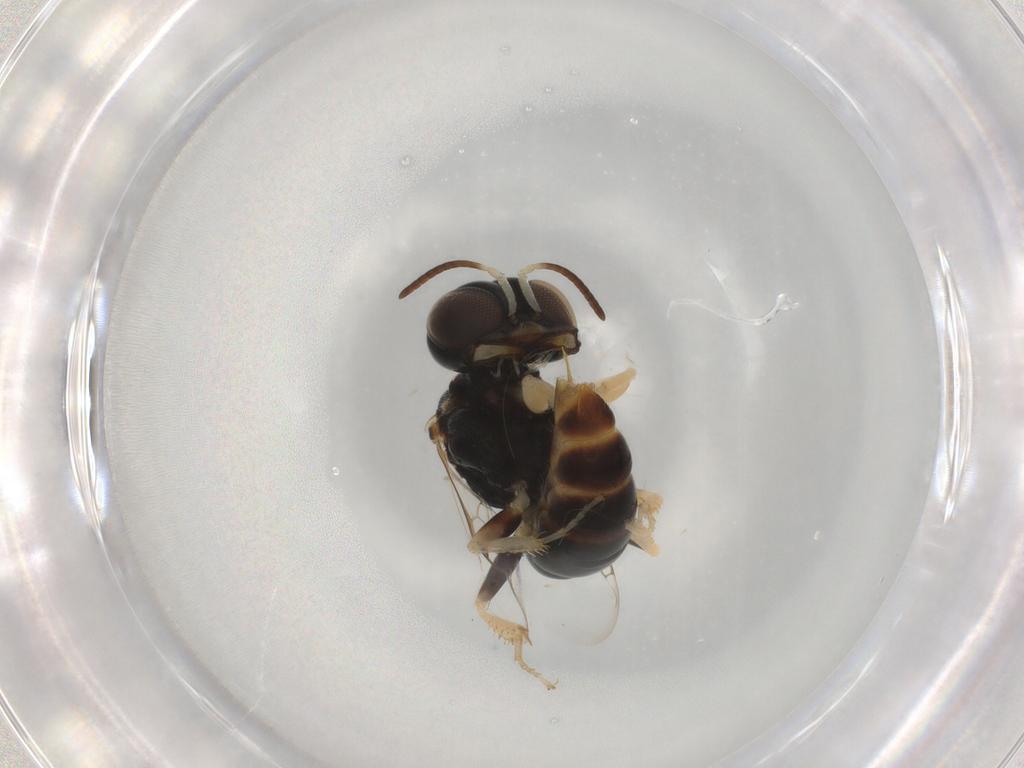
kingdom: Animalia
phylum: Arthropoda
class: Insecta
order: Hymenoptera
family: Crabronidae
